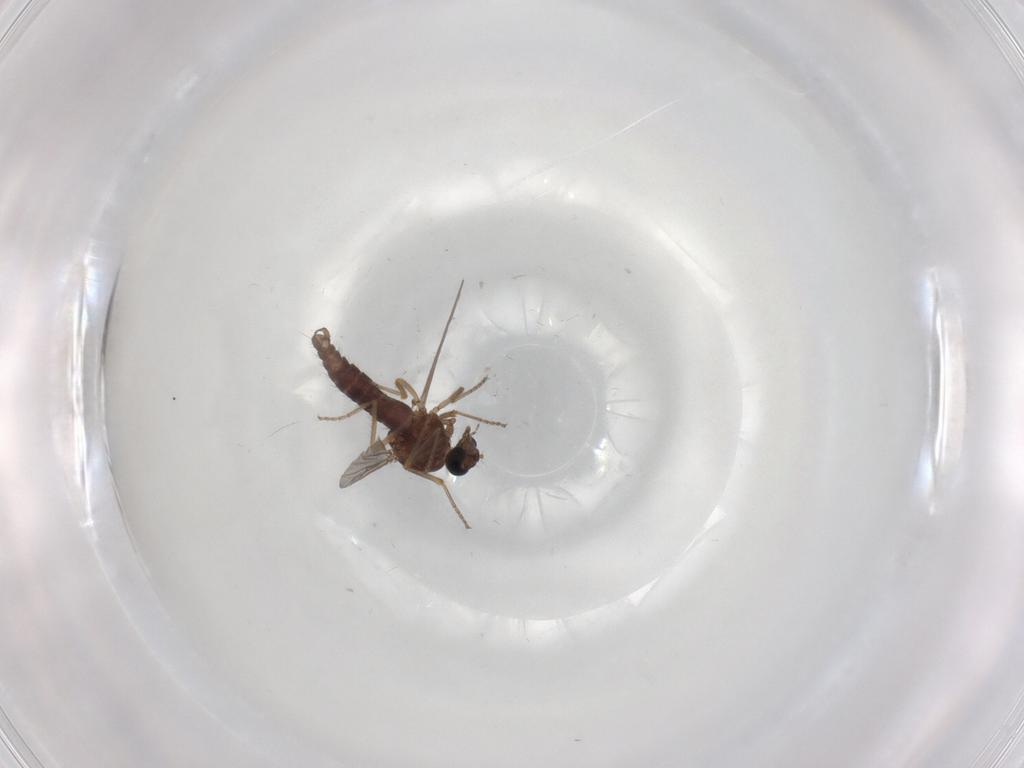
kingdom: Animalia
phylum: Arthropoda
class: Insecta
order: Diptera
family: Ceratopogonidae
